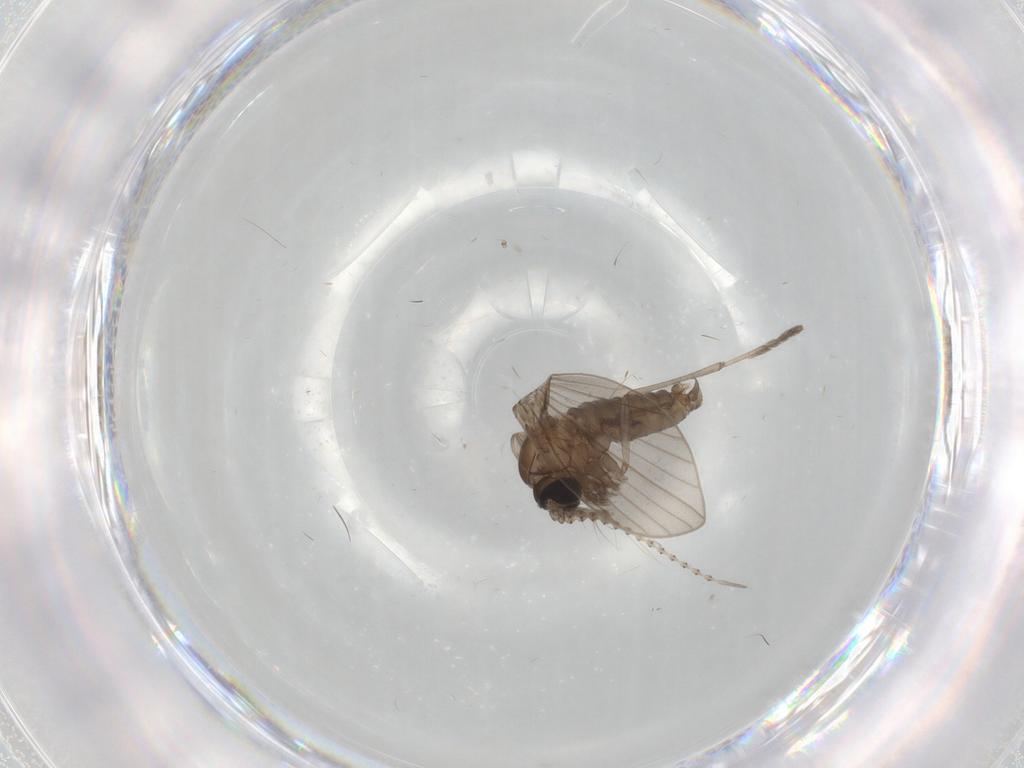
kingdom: Animalia
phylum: Arthropoda
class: Insecta
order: Diptera
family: Psychodidae
